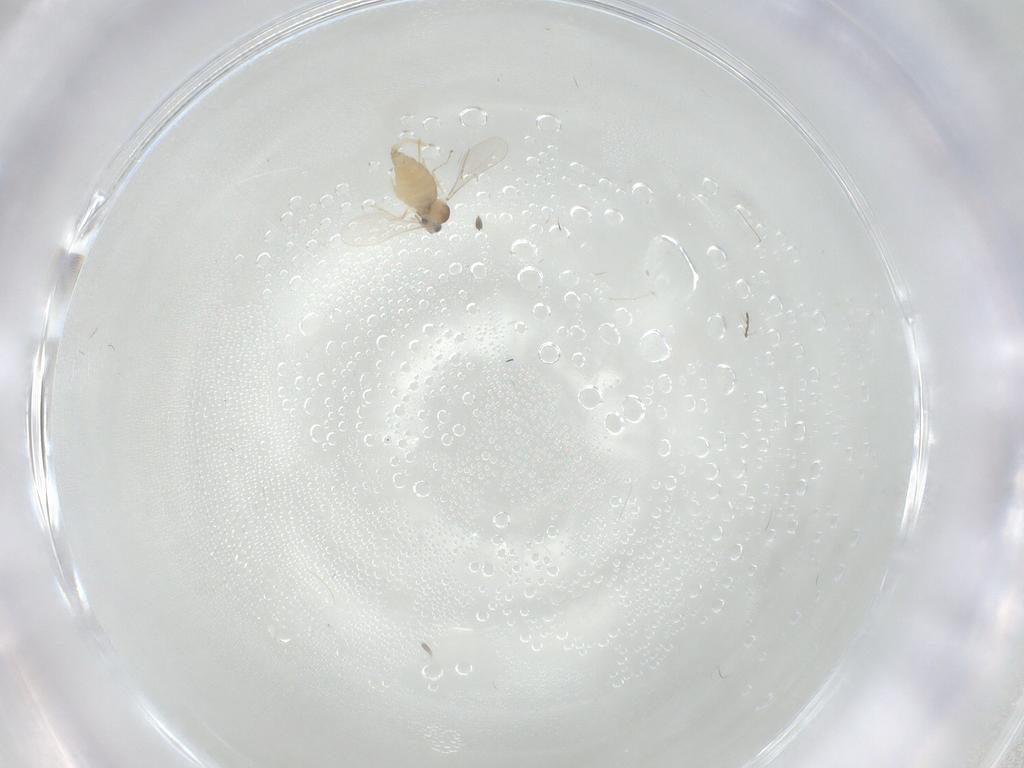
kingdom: Animalia
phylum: Arthropoda
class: Insecta
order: Diptera
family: Cecidomyiidae
